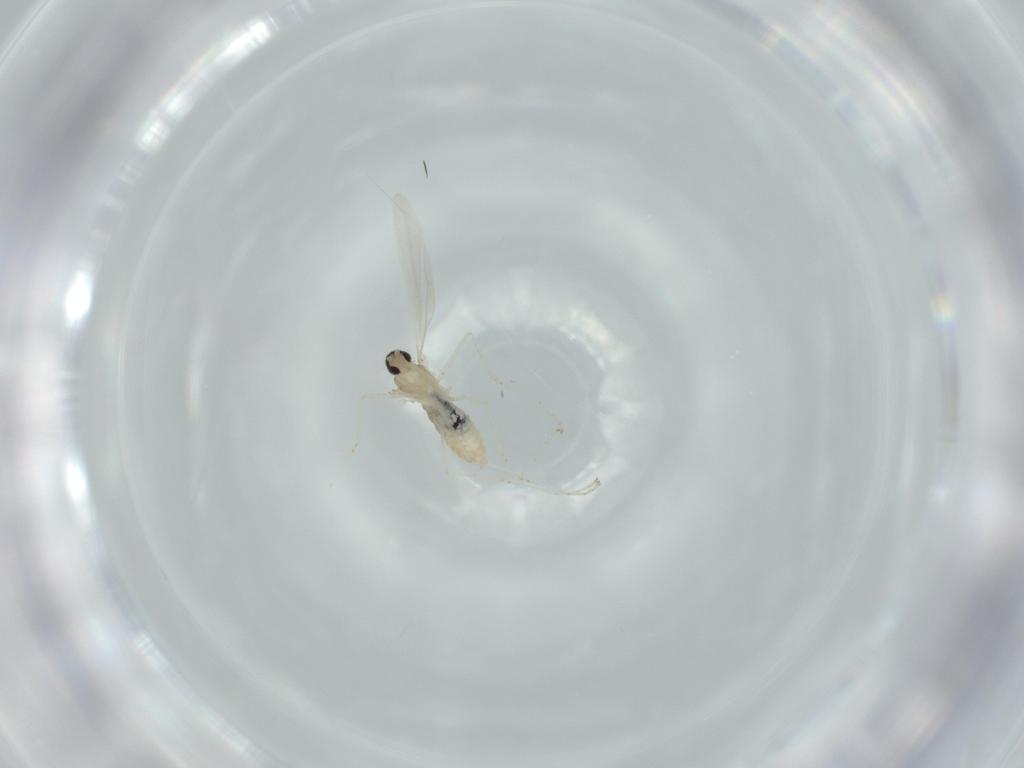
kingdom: Animalia
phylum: Arthropoda
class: Insecta
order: Diptera
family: Cecidomyiidae
